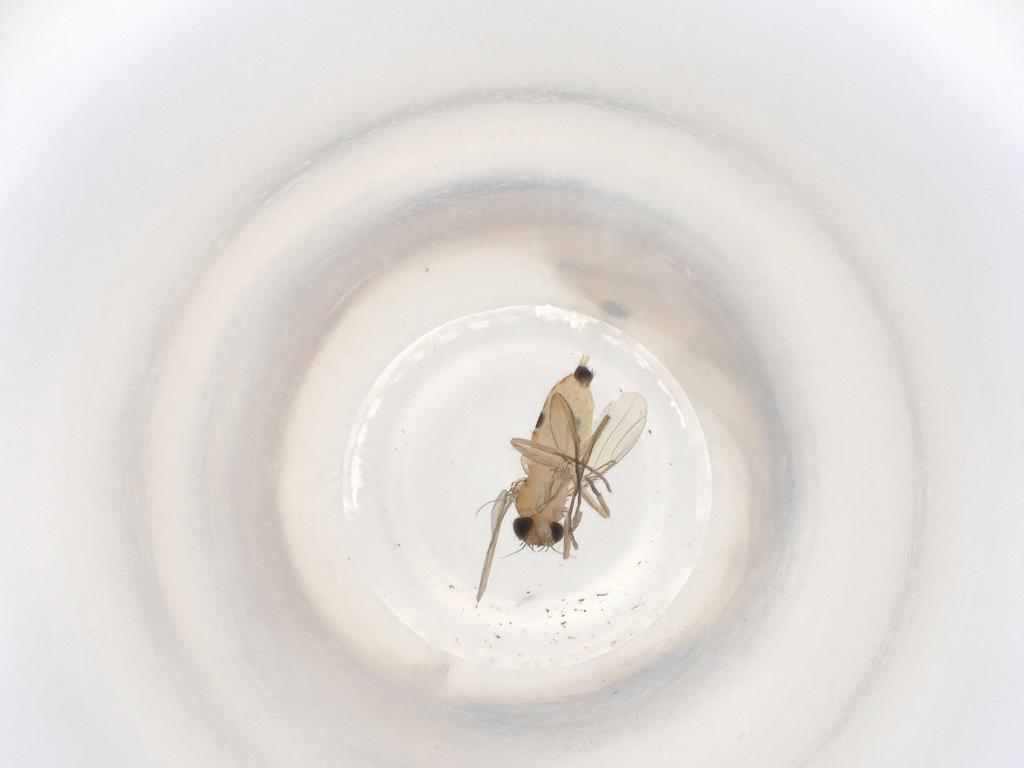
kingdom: Animalia
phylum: Arthropoda
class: Insecta
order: Diptera
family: Phoridae
